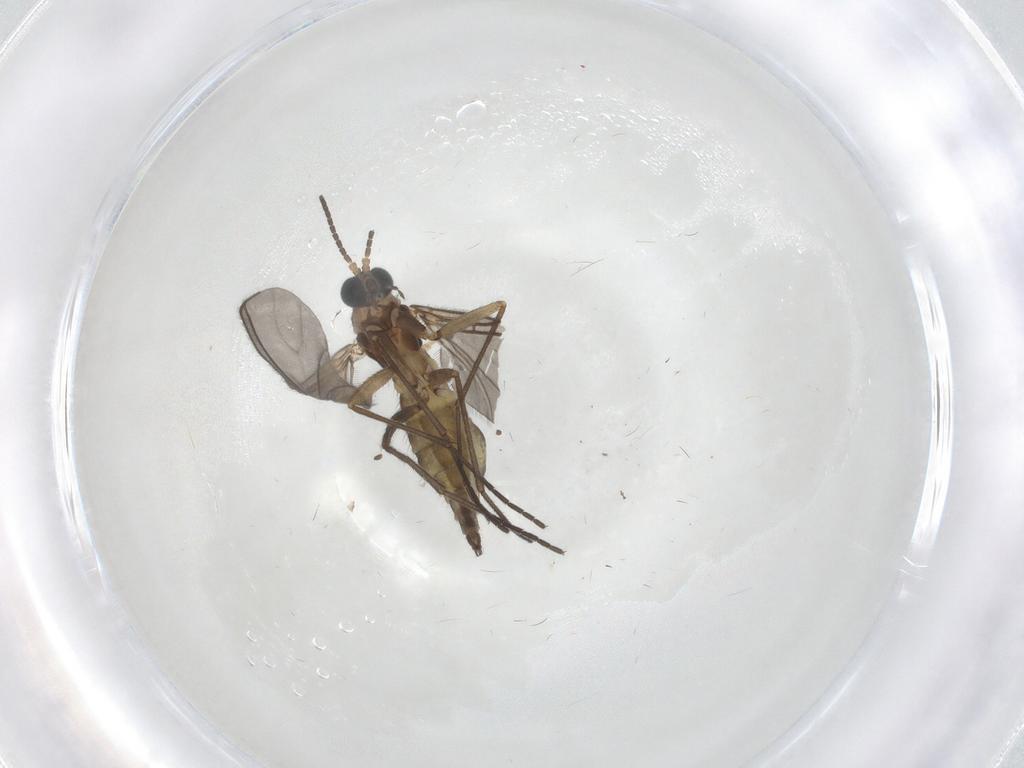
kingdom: Animalia
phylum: Arthropoda
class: Insecta
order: Diptera
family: Sciaridae
